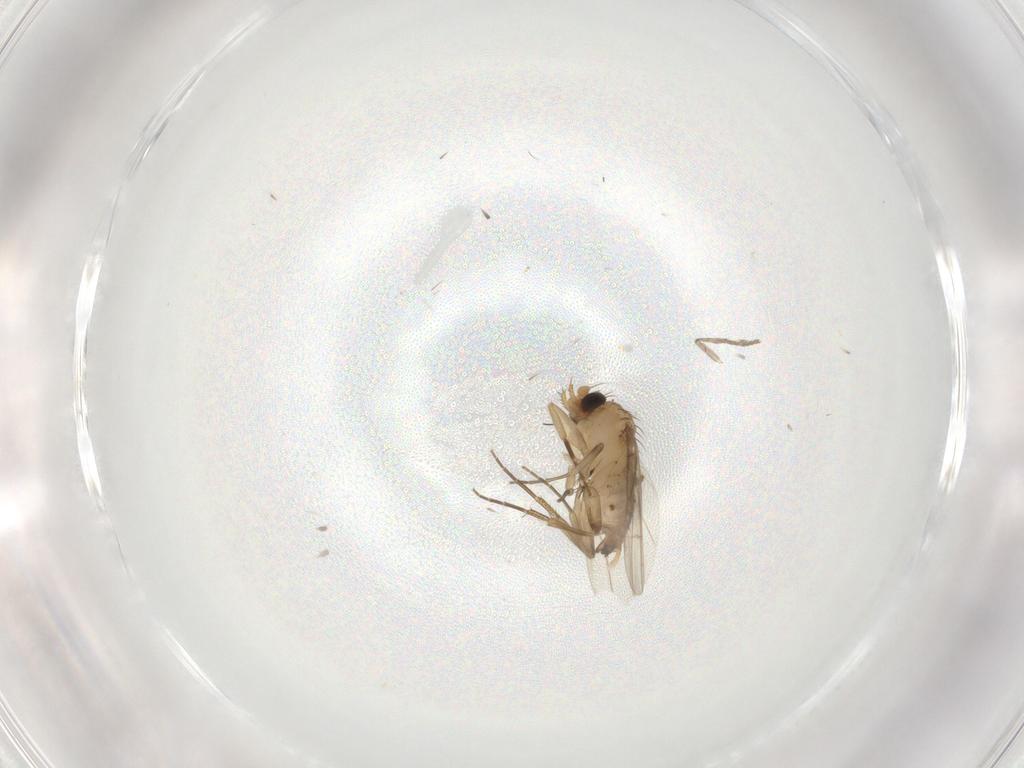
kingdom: Animalia
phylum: Arthropoda
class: Insecta
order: Diptera
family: Phoridae
